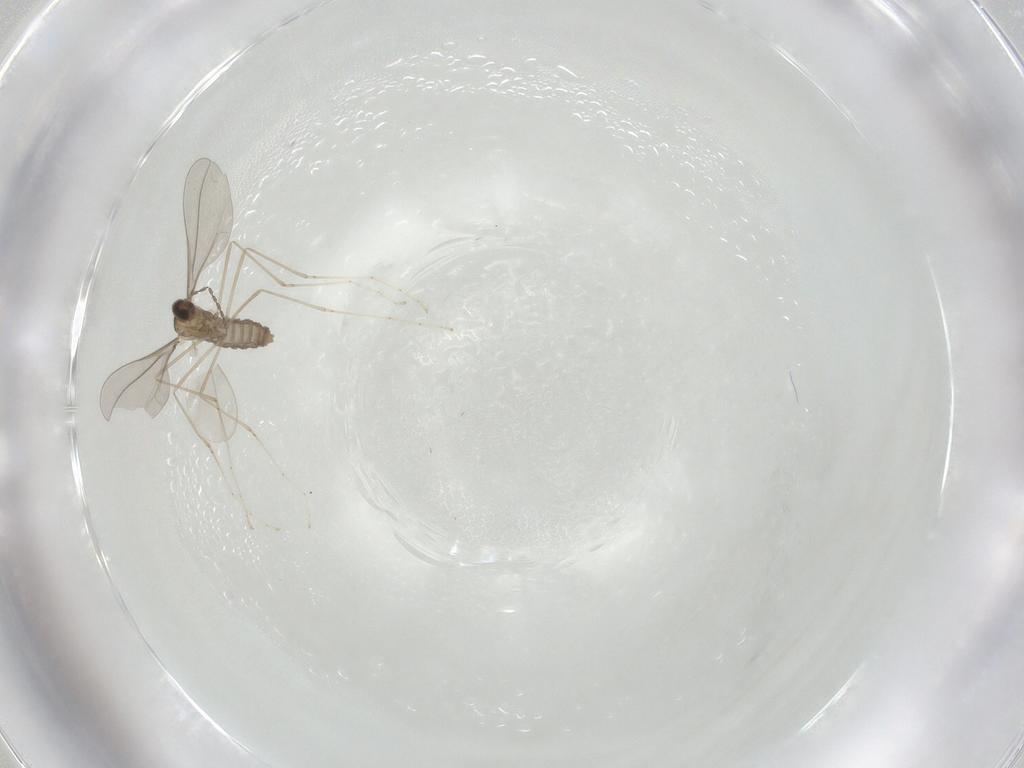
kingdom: Animalia
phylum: Arthropoda
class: Insecta
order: Diptera
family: Cecidomyiidae
